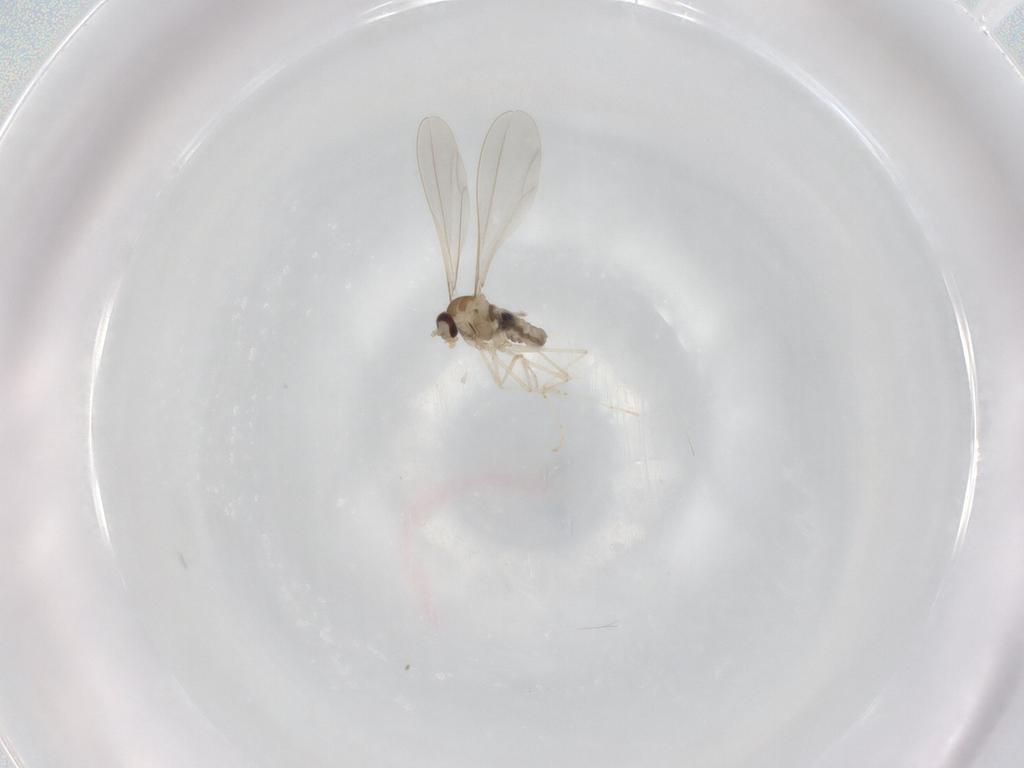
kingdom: Animalia
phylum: Arthropoda
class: Insecta
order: Diptera
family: Cecidomyiidae
